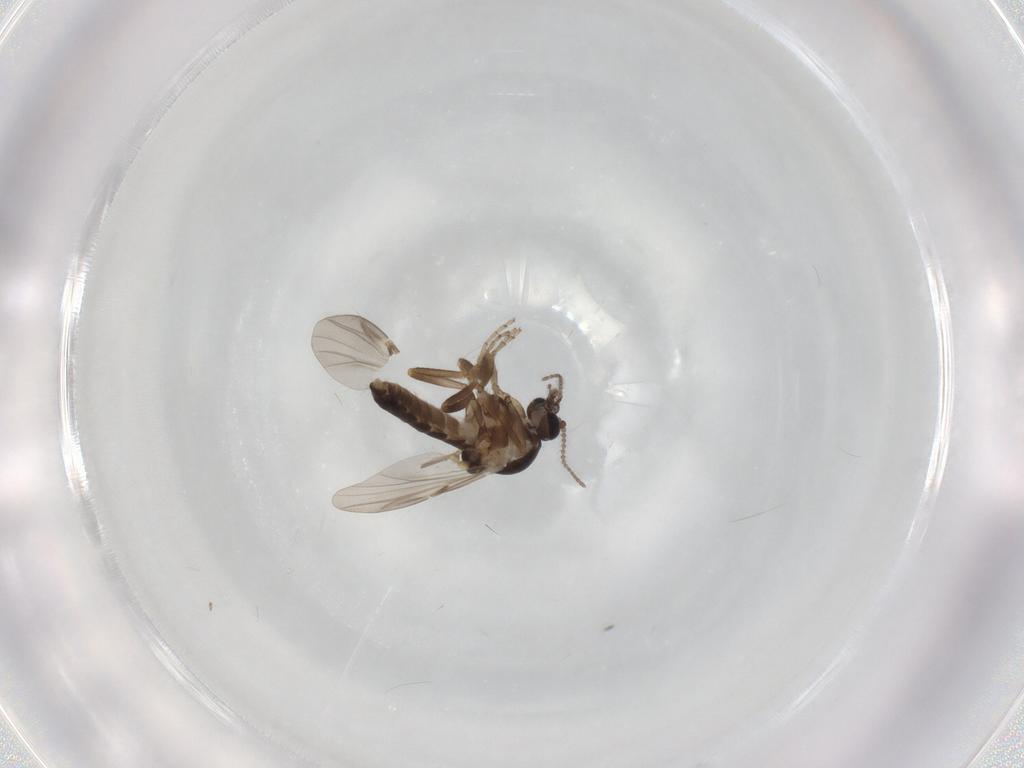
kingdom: Animalia
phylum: Arthropoda
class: Insecta
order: Diptera
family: Ceratopogonidae
